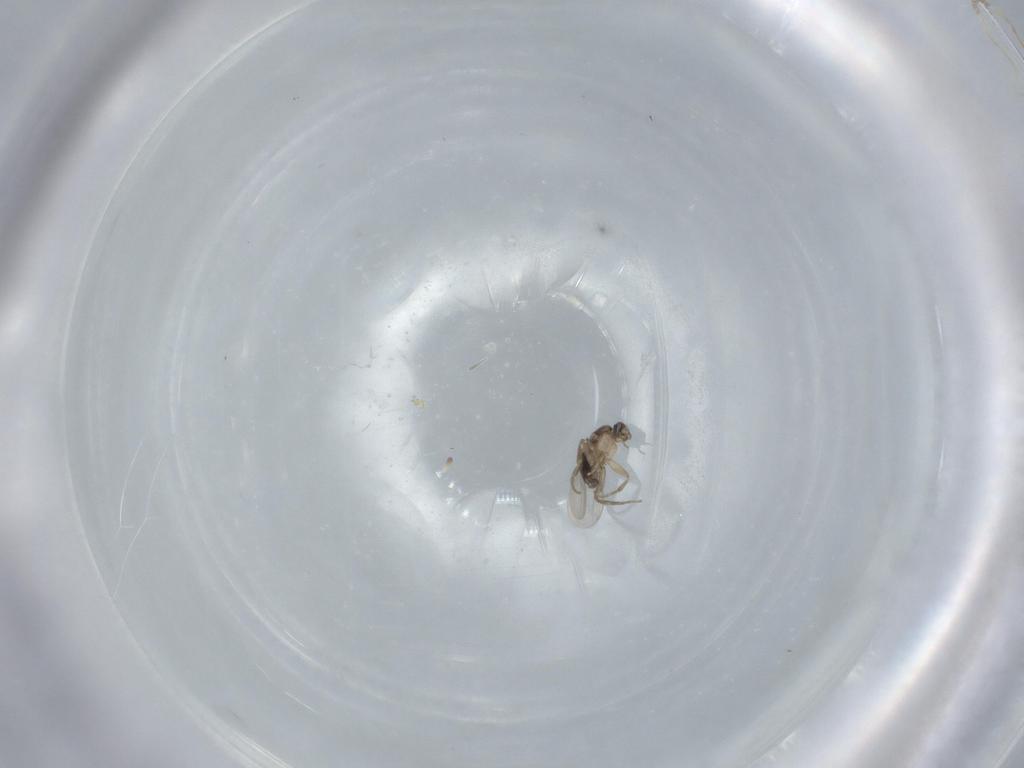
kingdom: Animalia
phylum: Arthropoda
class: Insecta
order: Diptera
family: Phoridae
